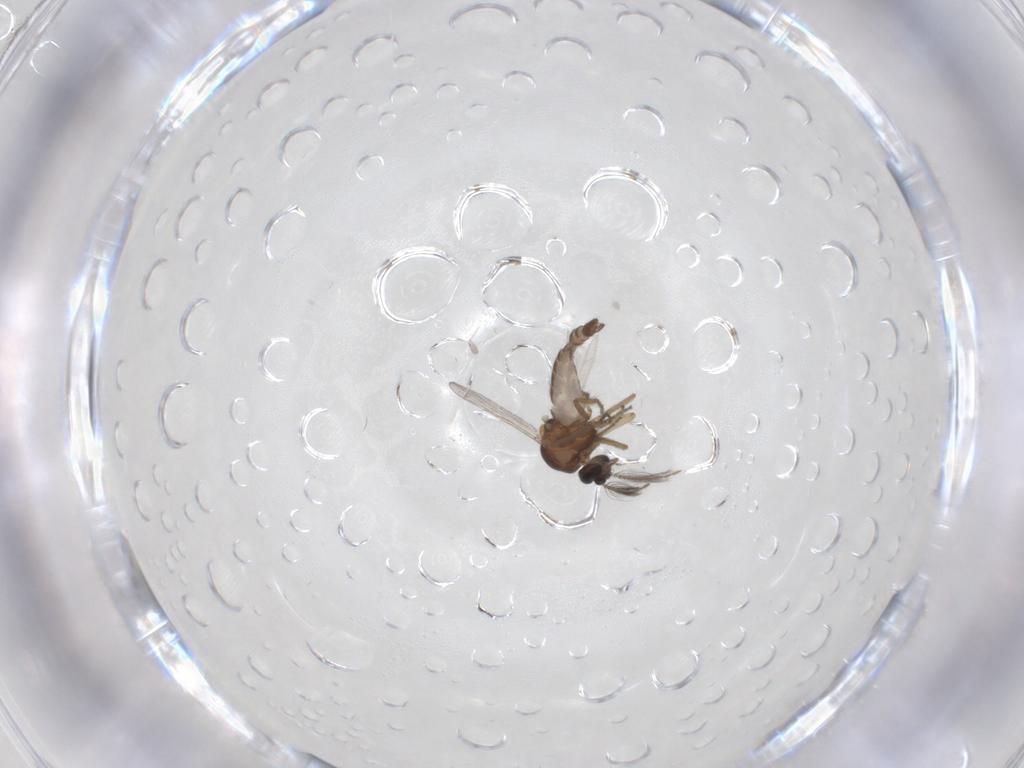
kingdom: Animalia
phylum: Arthropoda
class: Insecta
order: Diptera
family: Ceratopogonidae
